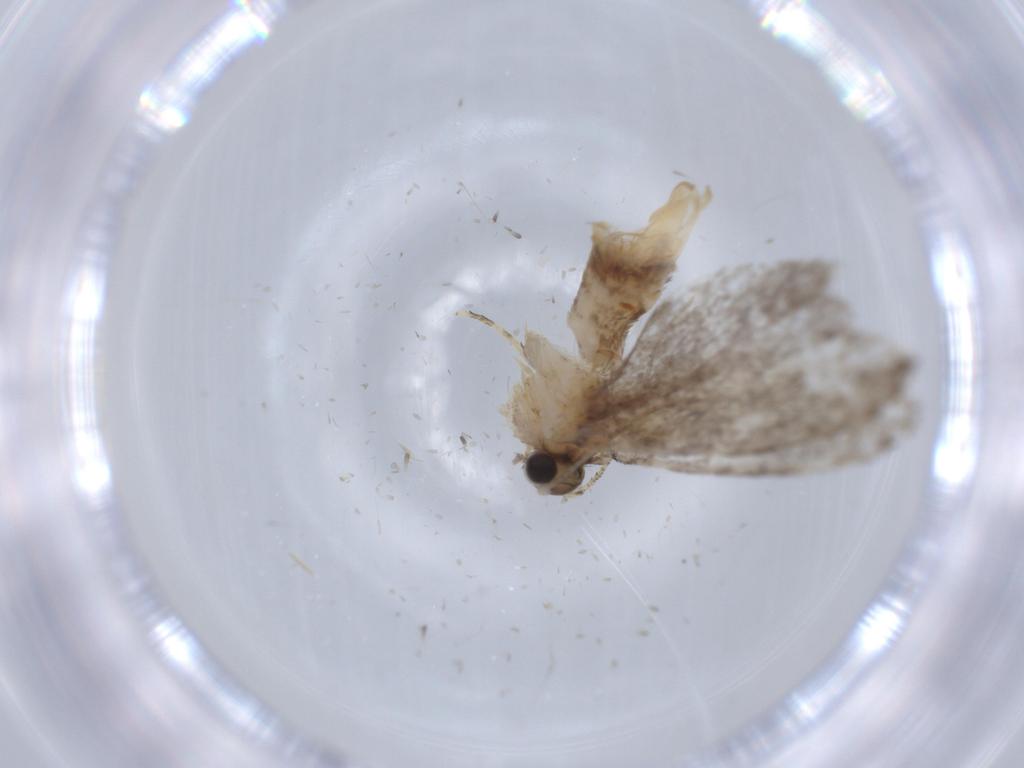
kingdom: Animalia
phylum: Arthropoda
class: Insecta
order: Lepidoptera
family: Tineidae
